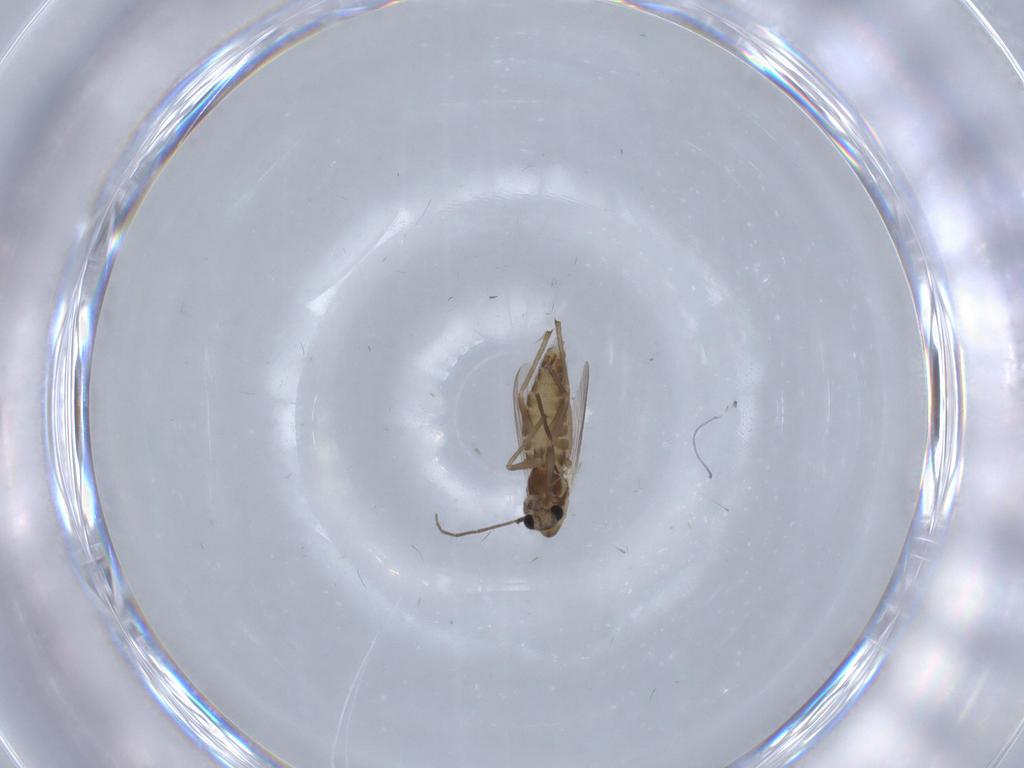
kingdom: Animalia
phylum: Arthropoda
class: Insecta
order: Diptera
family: Chironomidae
